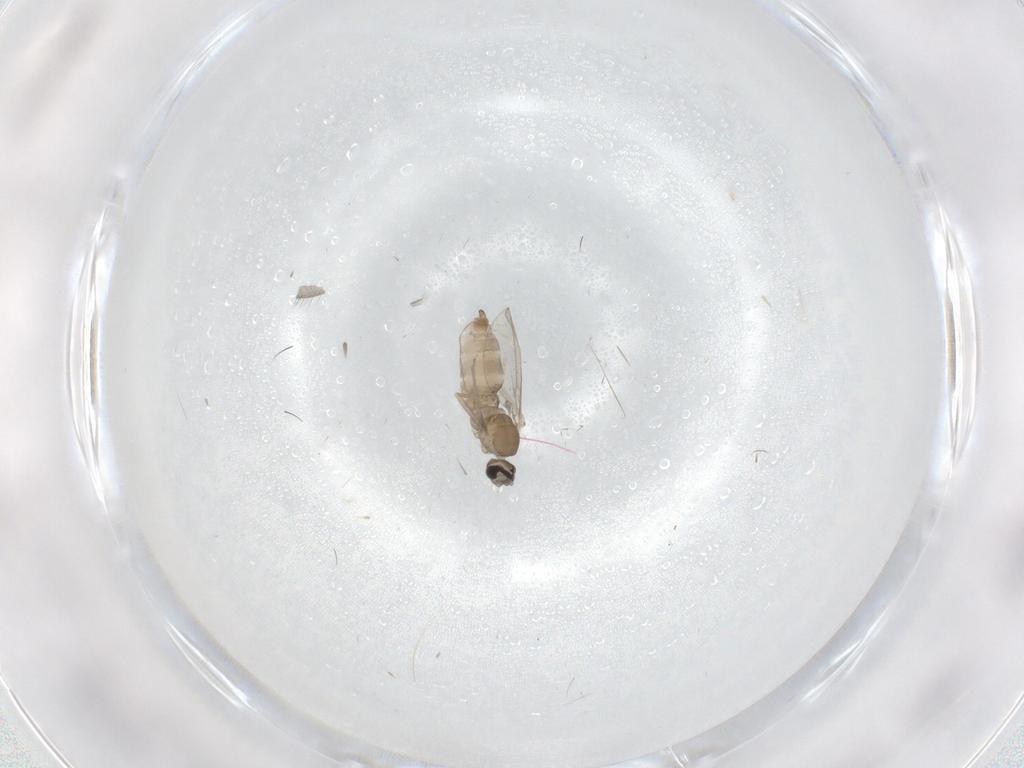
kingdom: Animalia
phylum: Arthropoda
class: Insecta
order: Diptera
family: Cecidomyiidae
